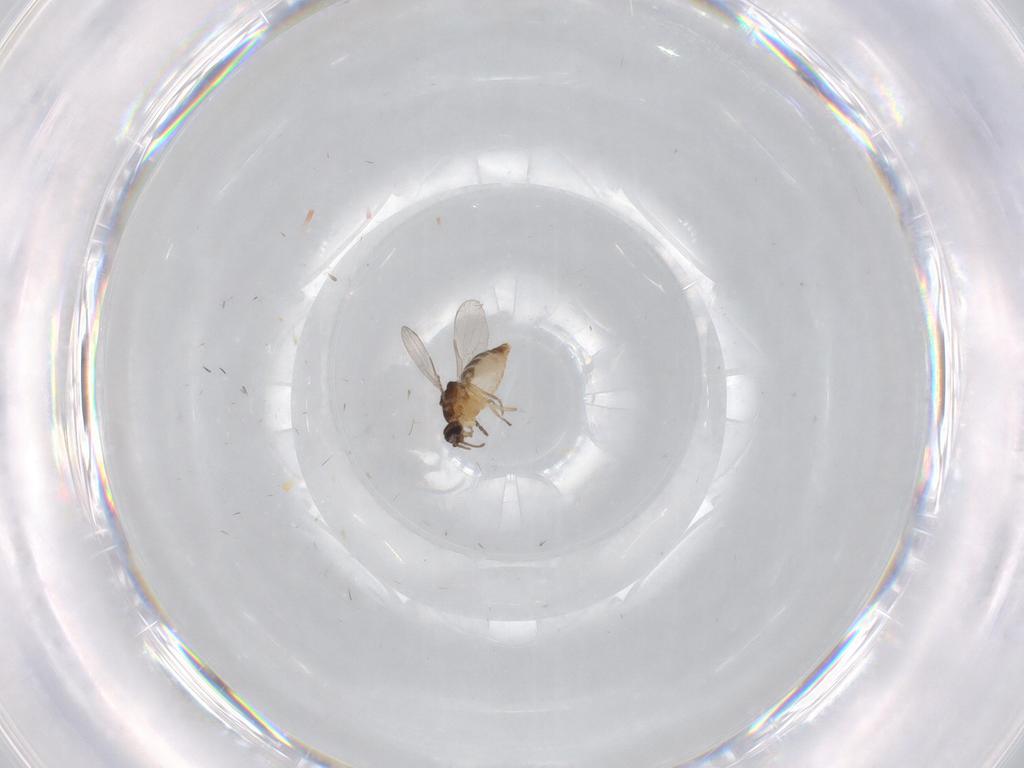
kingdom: Animalia
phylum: Arthropoda
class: Insecta
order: Diptera
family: Ceratopogonidae
